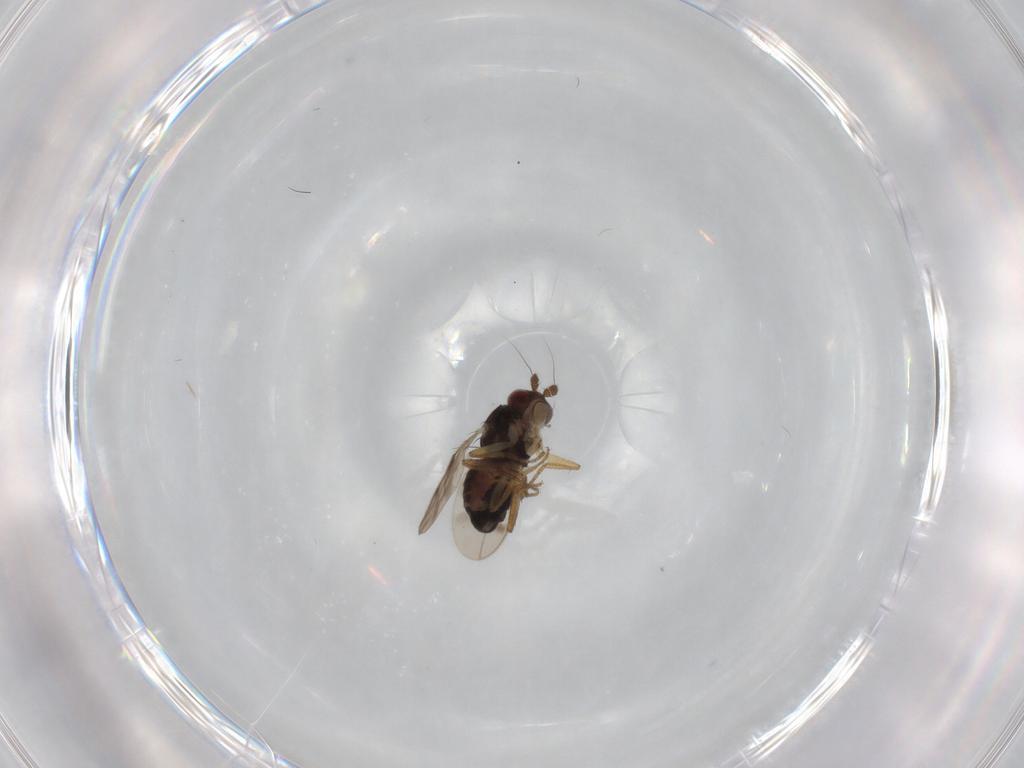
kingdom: Animalia
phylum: Arthropoda
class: Insecta
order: Diptera
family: Sphaeroceridae
